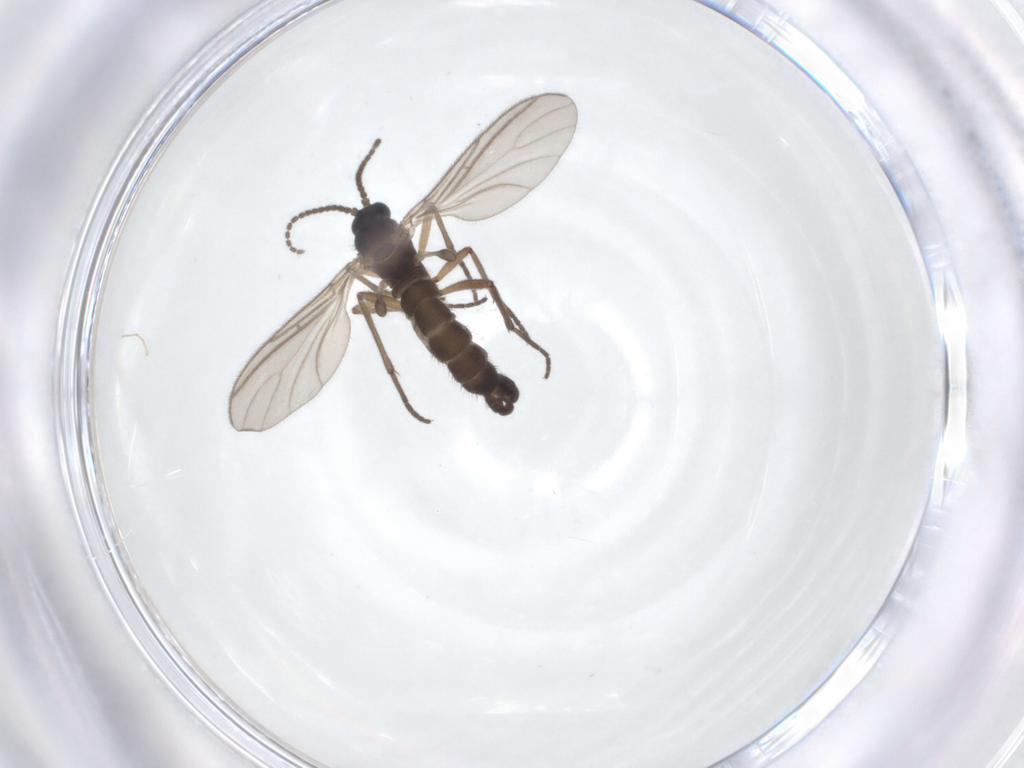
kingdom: Animalia
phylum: Arthropoda
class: Insecta
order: Diptera
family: Sciaridae
